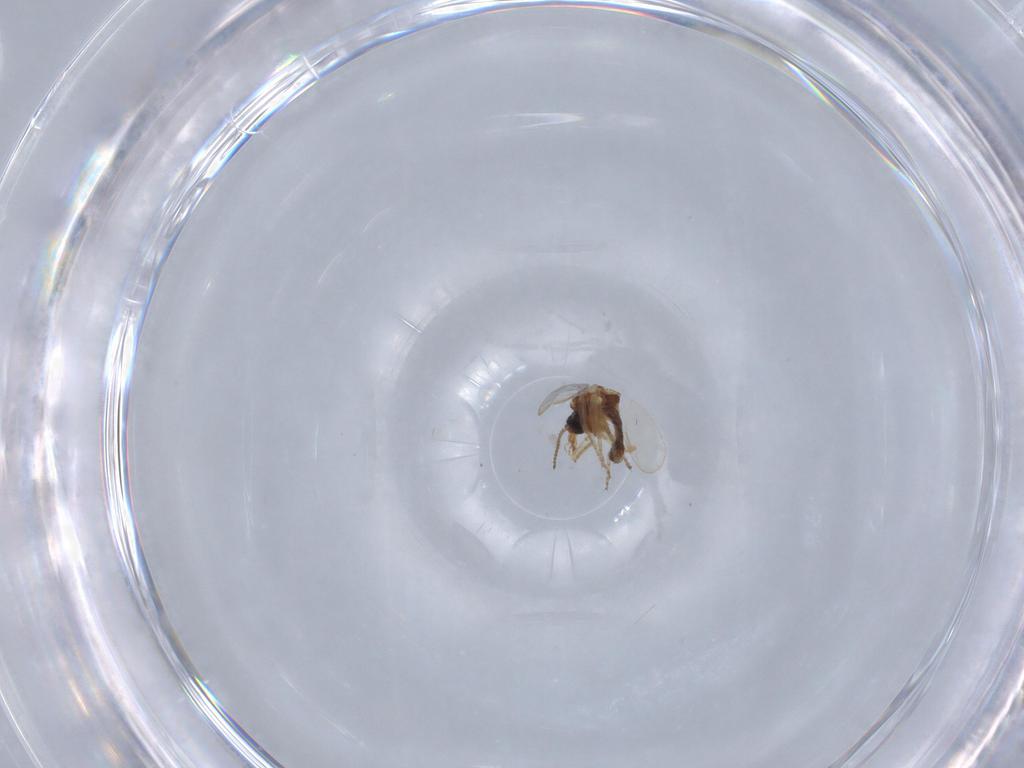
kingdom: Animalia
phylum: Arthropoda
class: Insecta
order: Diptera
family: Ceratopogonidae
